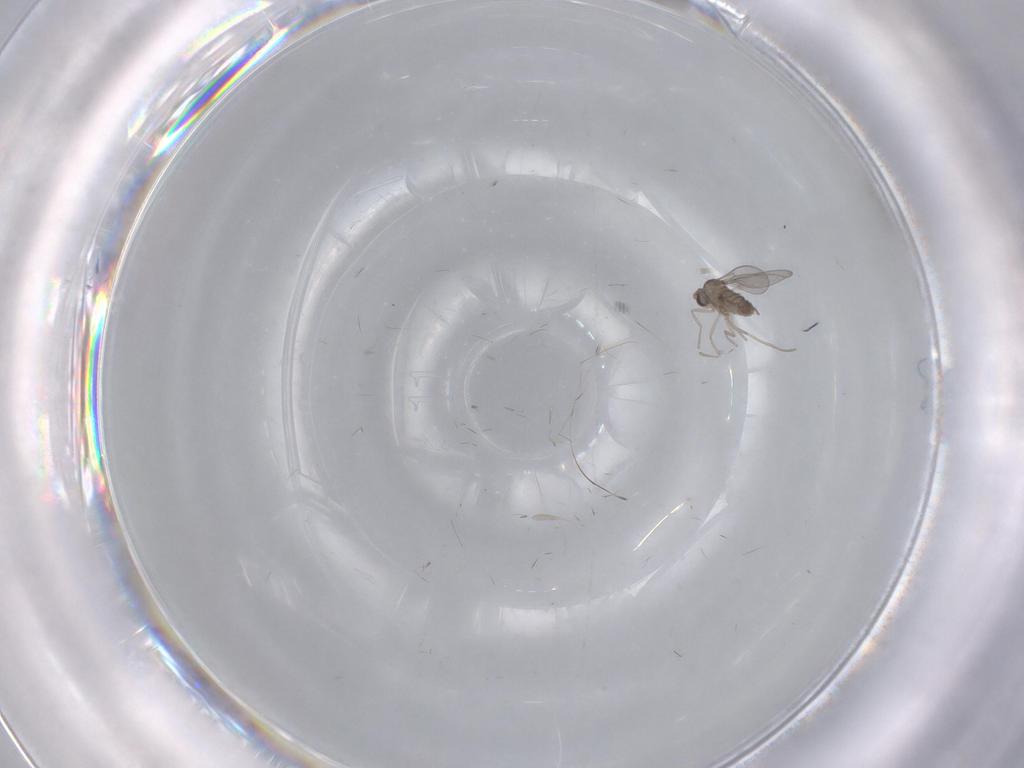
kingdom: Animalia
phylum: Arthropoda
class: Insecta
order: Diptera
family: Cecidomyiidae
